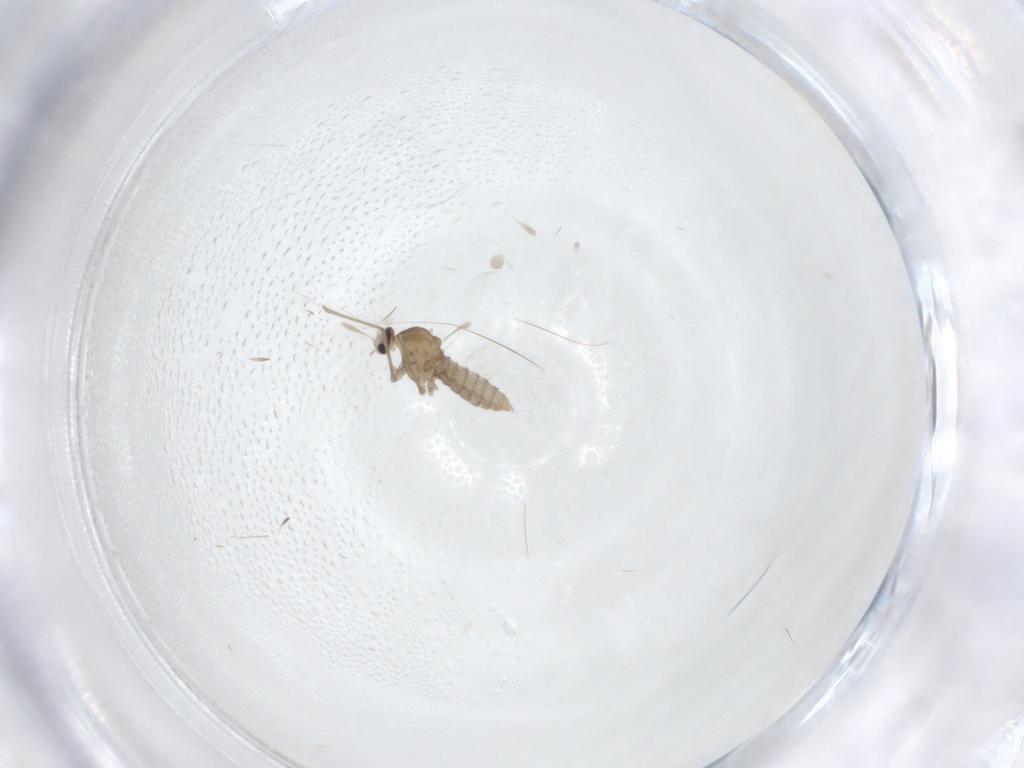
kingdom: Animalia
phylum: Arthropoda
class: Insecta
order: Diptera
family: Cecidomyiidae
